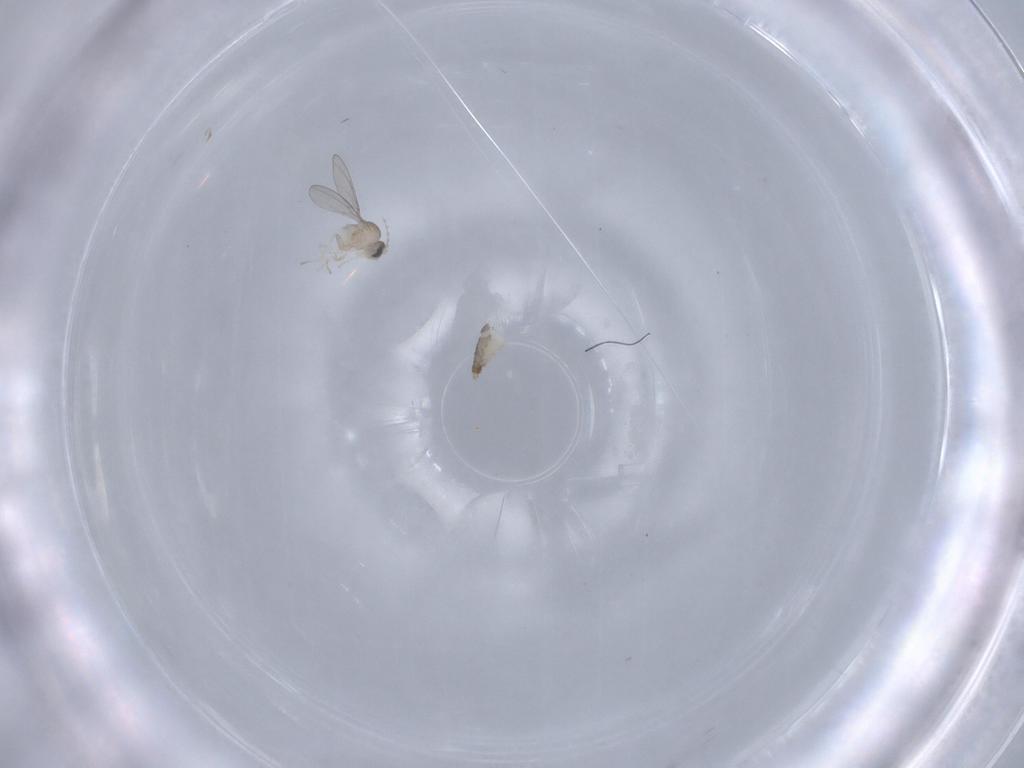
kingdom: Animalia
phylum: Arthropoda
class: Insecta
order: Diptera
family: Cecidomyiidae
